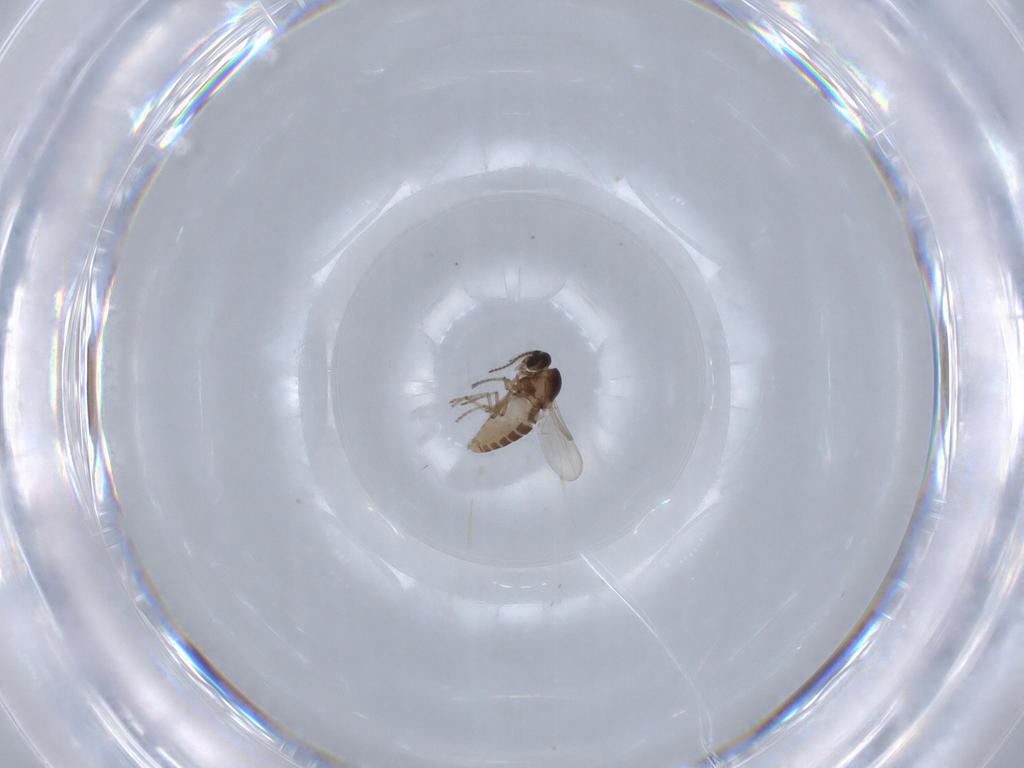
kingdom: Animalia
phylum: Arthropoda
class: Insecta
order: Diptera
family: Ceratopogonidae
